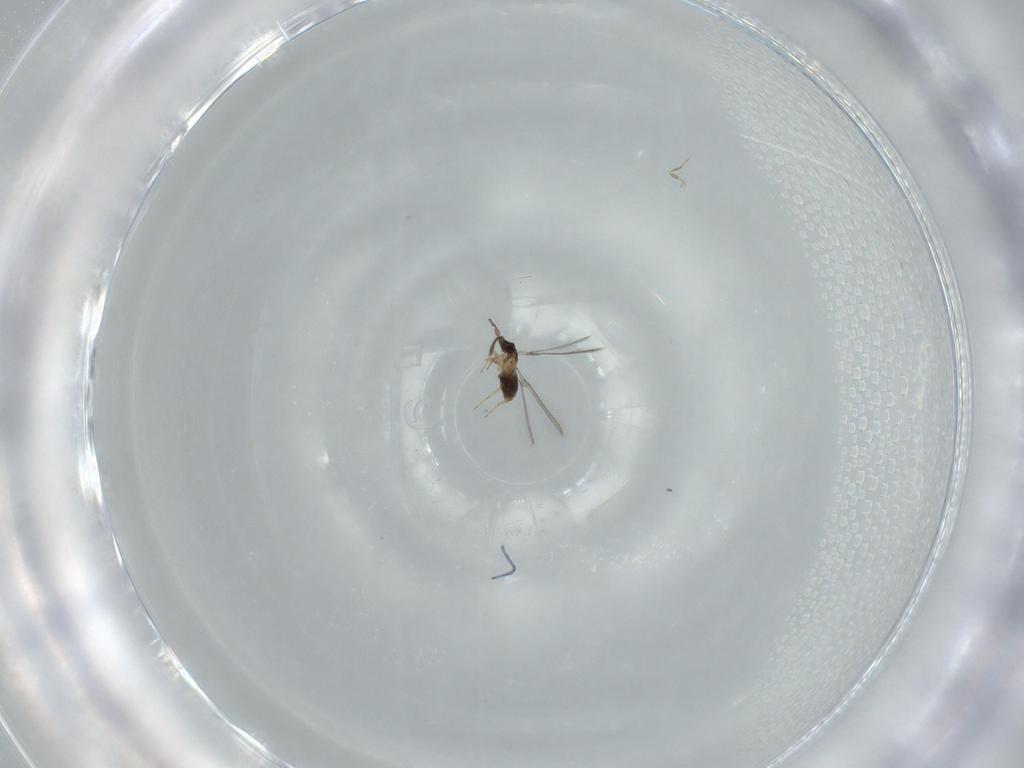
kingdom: Animalia
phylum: Arthropoda
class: Insecta
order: Hymenoptera
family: Mymaridae
